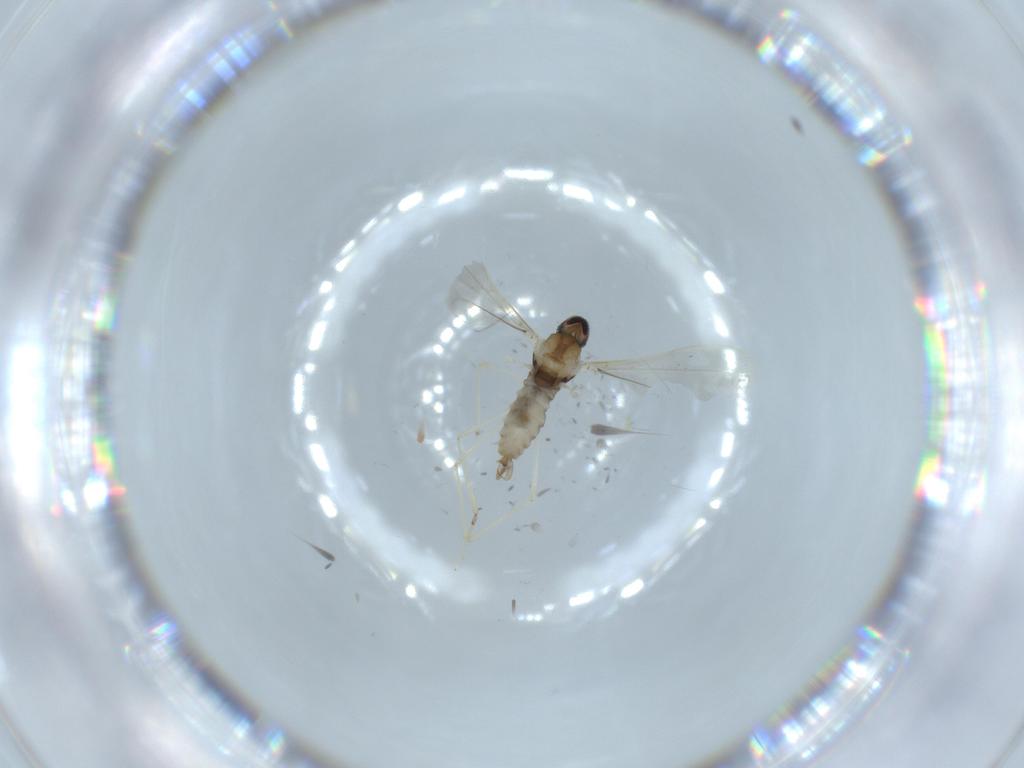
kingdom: Animalia
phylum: Arthropoda
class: Insecta
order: Diptera
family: Cecidomyiidae
